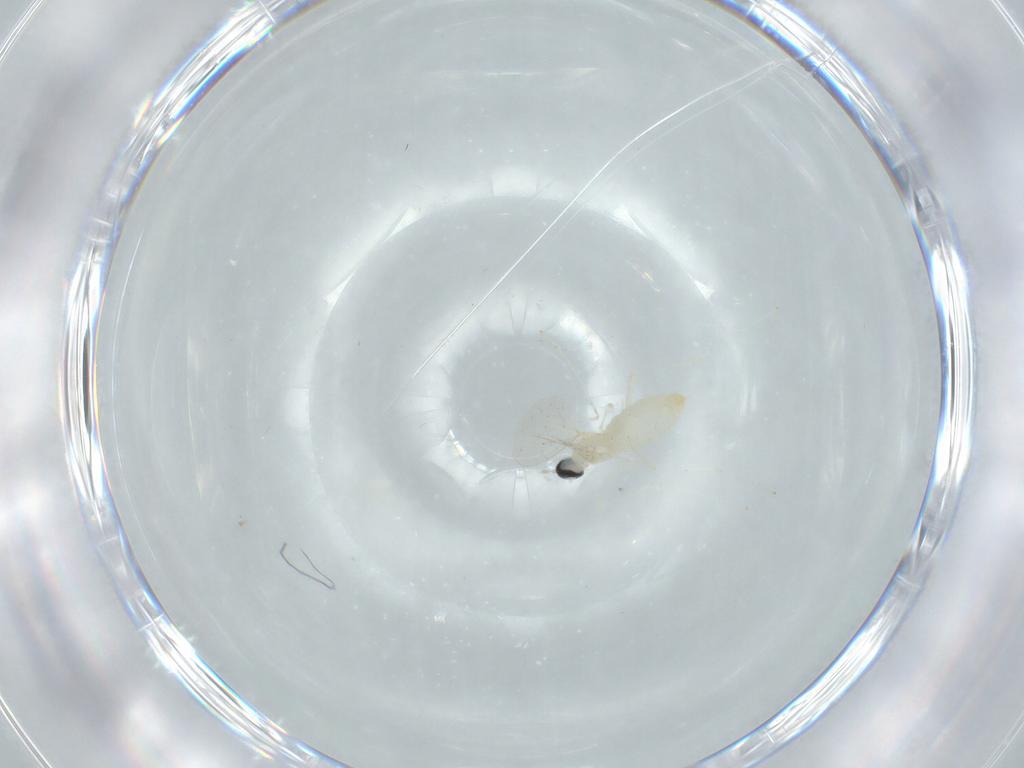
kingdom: Animalia
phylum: Arthropoda
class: Insecta
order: Diptera
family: Cecidomyiidae
